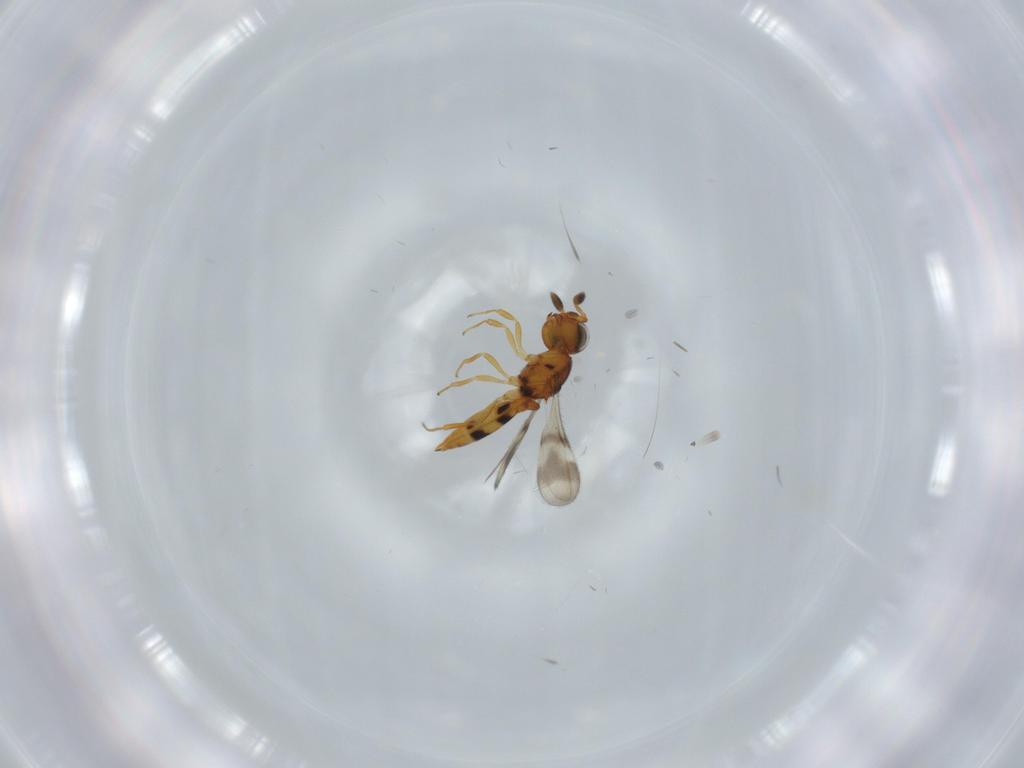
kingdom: Animalia
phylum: Arthropoda
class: Insecta
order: Hymenoptera
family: Scelionidae
